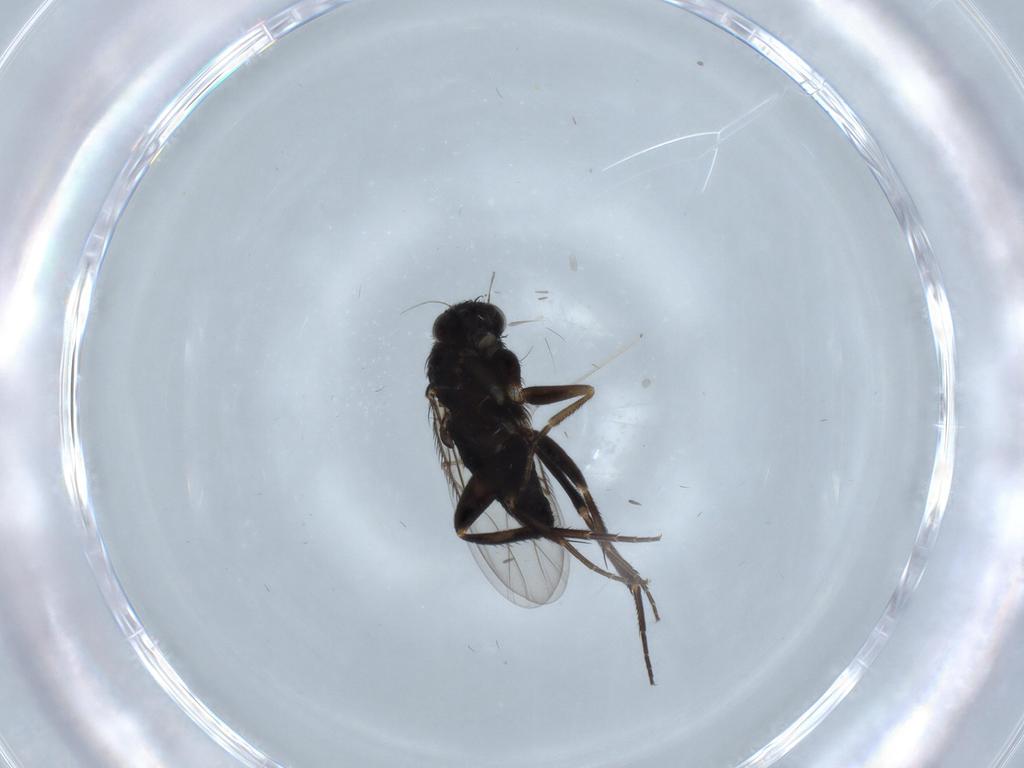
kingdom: Animalia
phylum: Arthropoda
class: Insecta
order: Diptera
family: Phoridae
